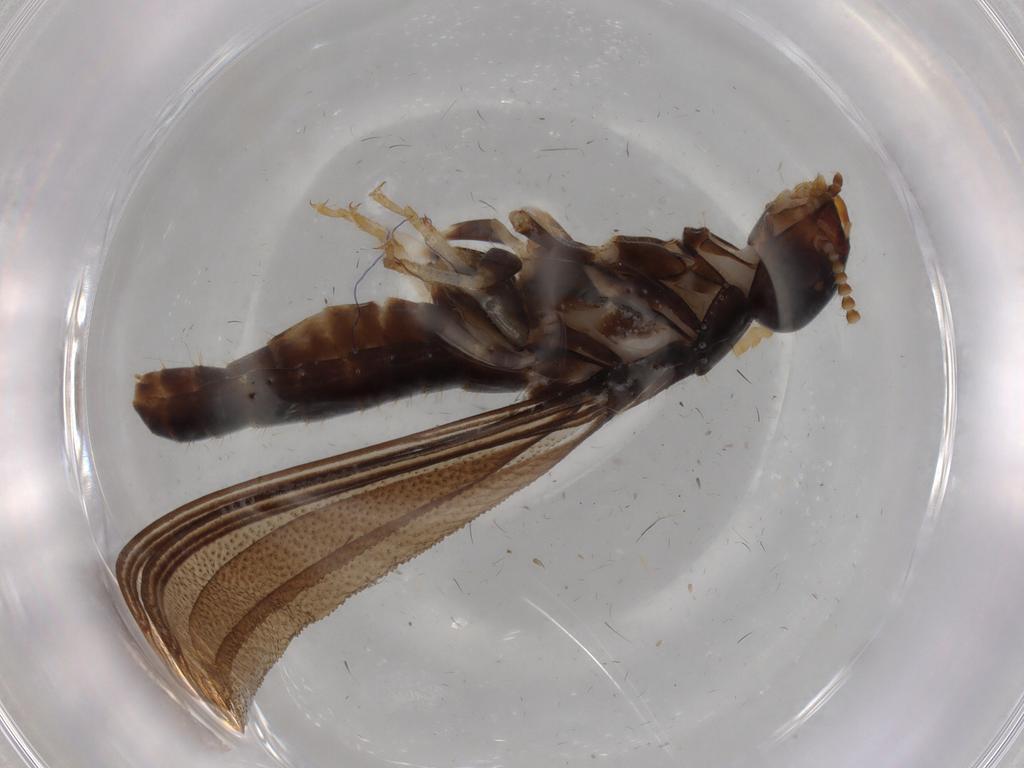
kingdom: Animalia
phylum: Arthropoda
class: Insecta
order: Blattodea
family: Kalotermitidae
